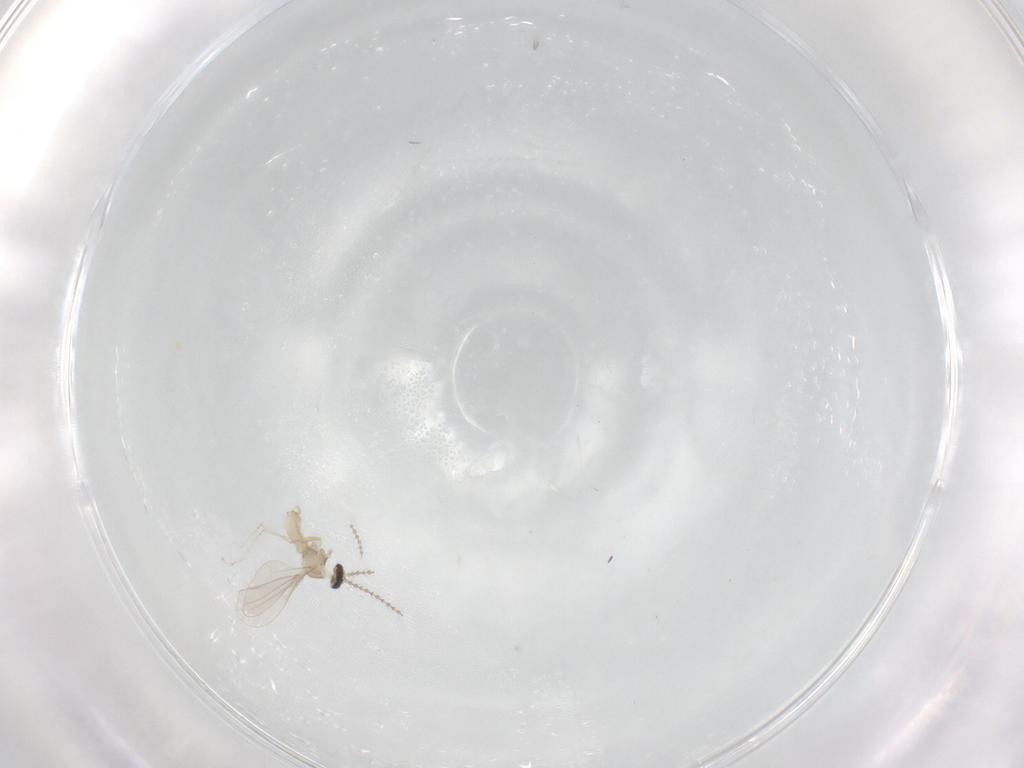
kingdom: Animalia
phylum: Arthropoda
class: Insecta
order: Diptera
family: Cecidomyiidae
